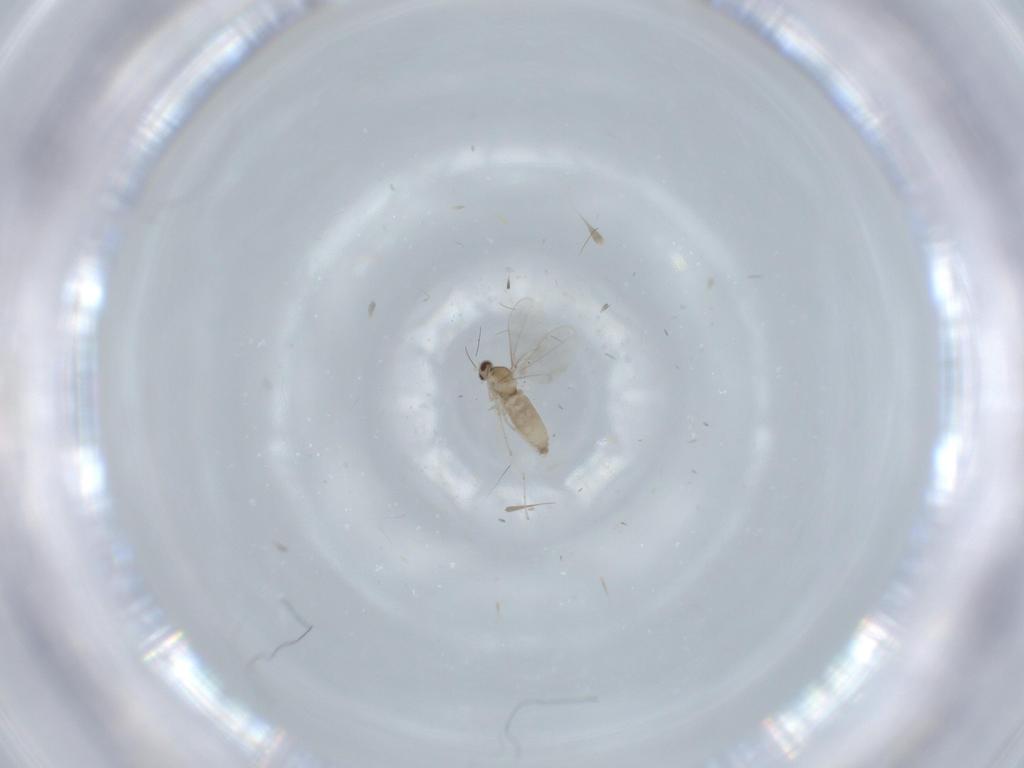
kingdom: Animalia
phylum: Arthropoda
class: Insecta
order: Diptera
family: Cecidomyiidae
